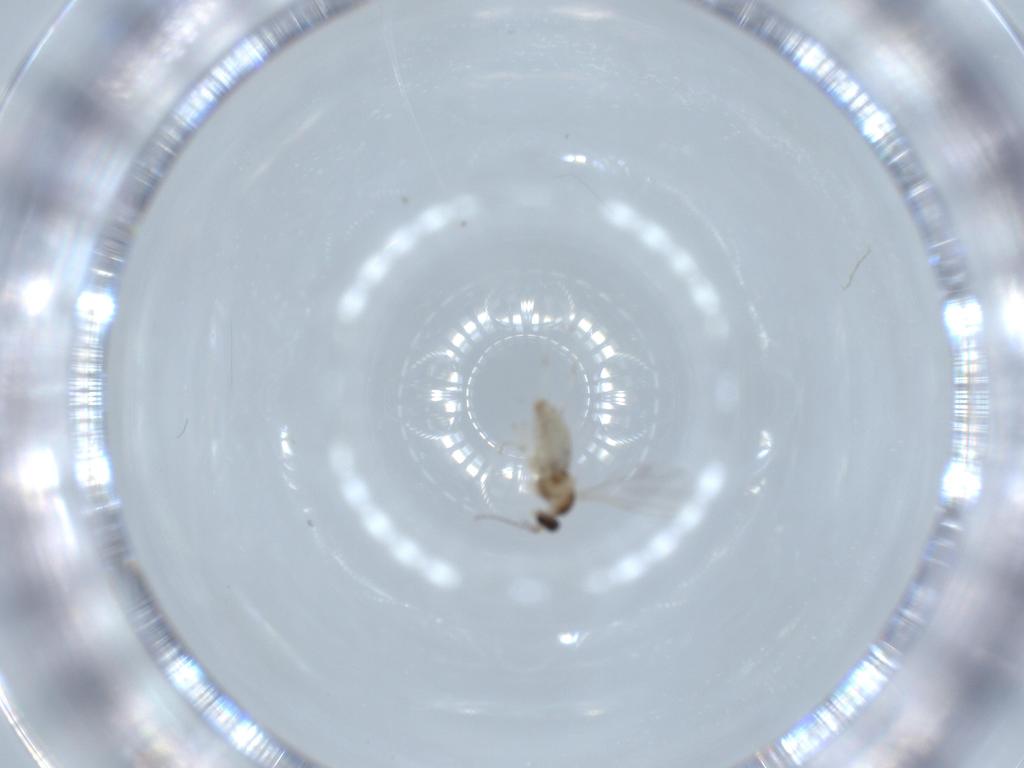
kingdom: Animalia
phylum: Arthropoda
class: Insecta
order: Diptera
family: Cecidomyiidae
